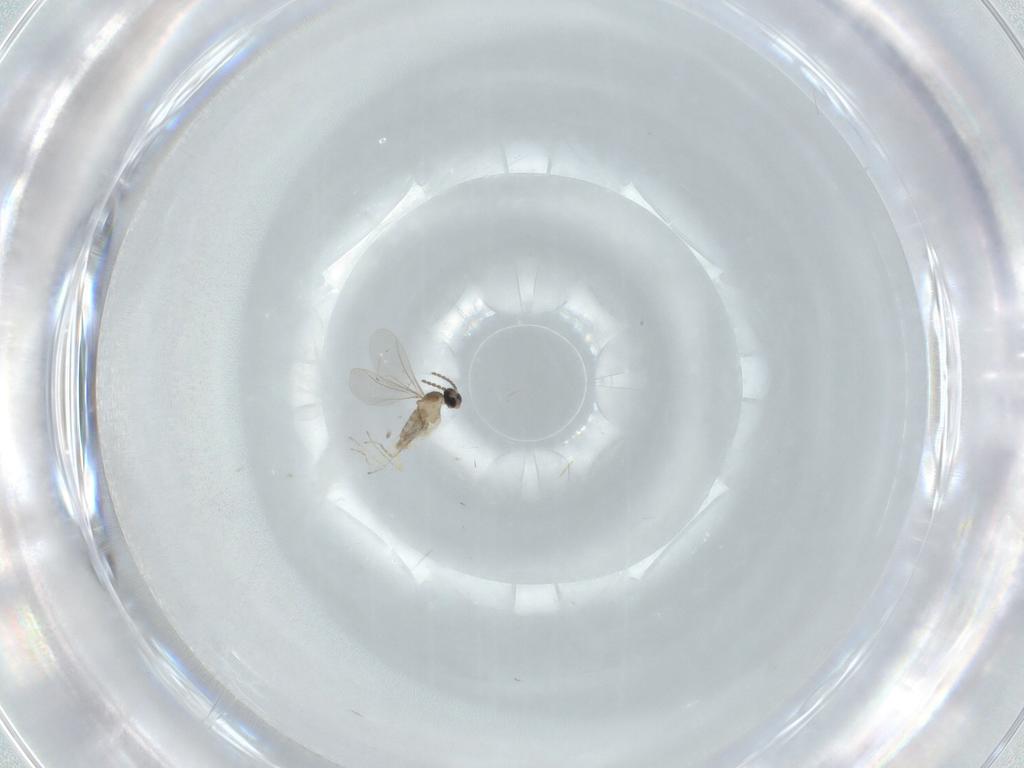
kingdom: Animalia
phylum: Arthropoda
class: Insecta
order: Diptera
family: Cecidomyiidae
